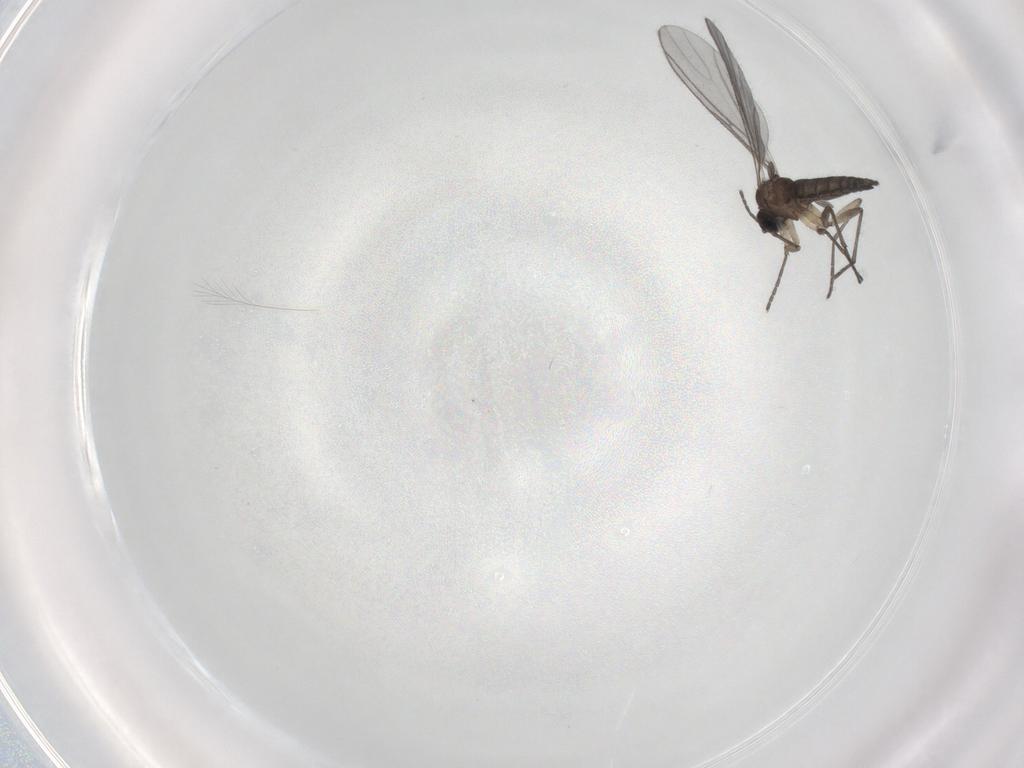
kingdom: Animalia
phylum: Arthropoda
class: Insecta
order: Diptera
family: Sciaridae
